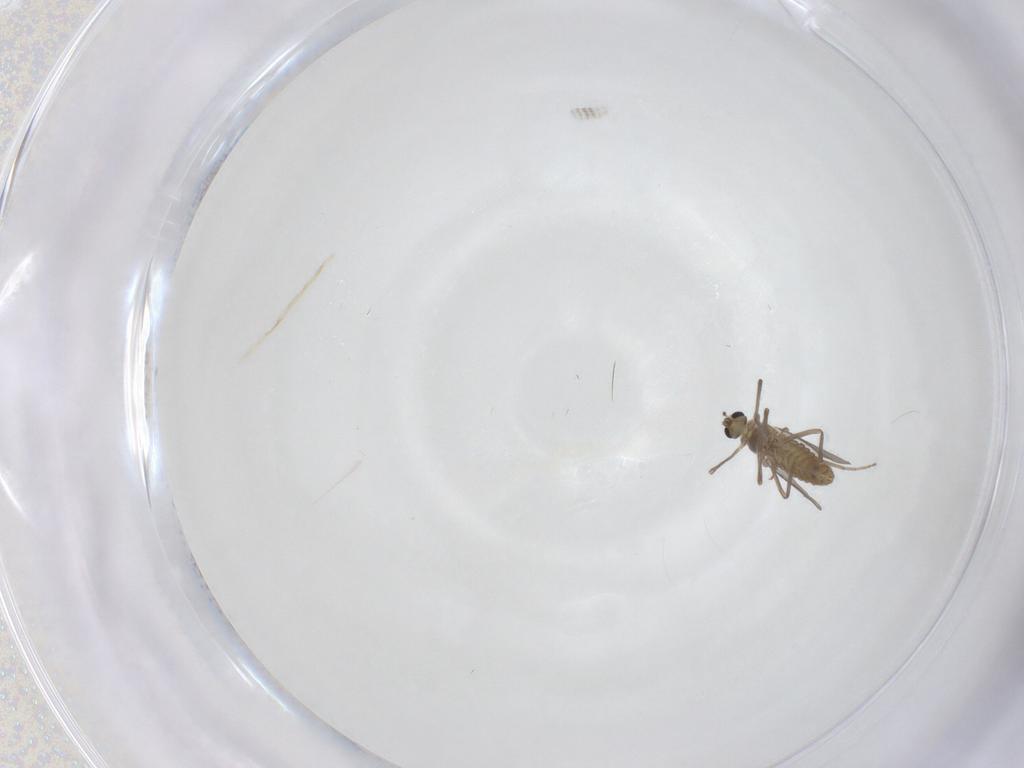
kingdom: Animalia
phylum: Arthropoda
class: Insecta
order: Diptera
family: Chironomidae
